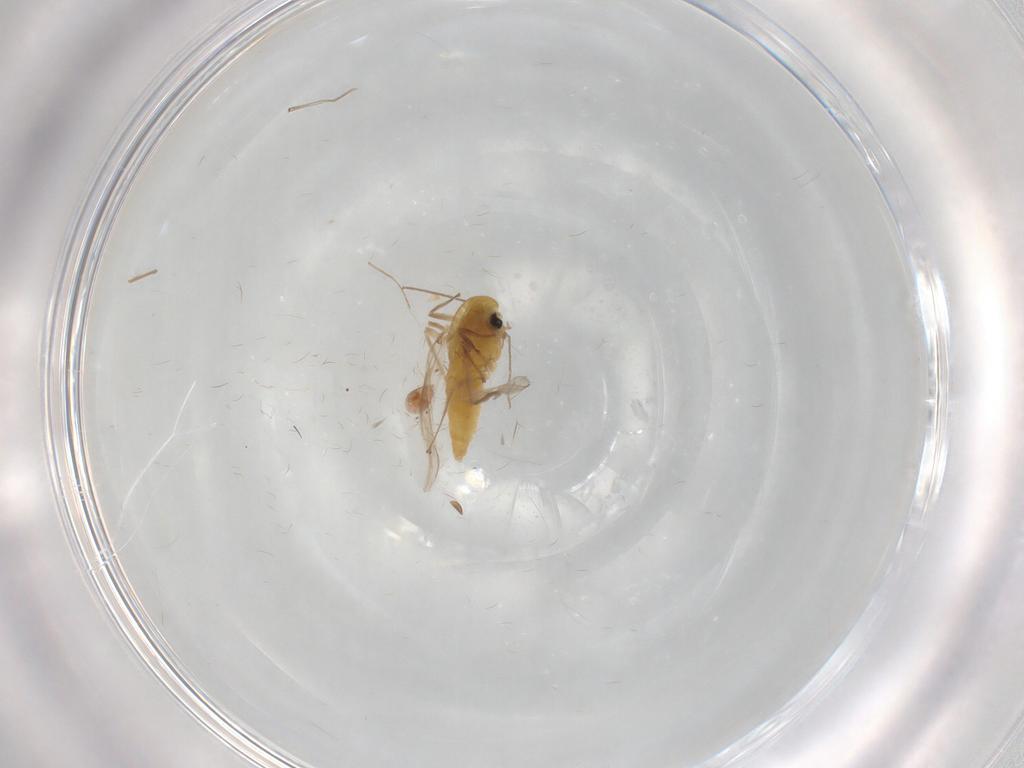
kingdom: Animalia
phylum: Arthropoda
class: Insecta
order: Diptera
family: Chironomidae
